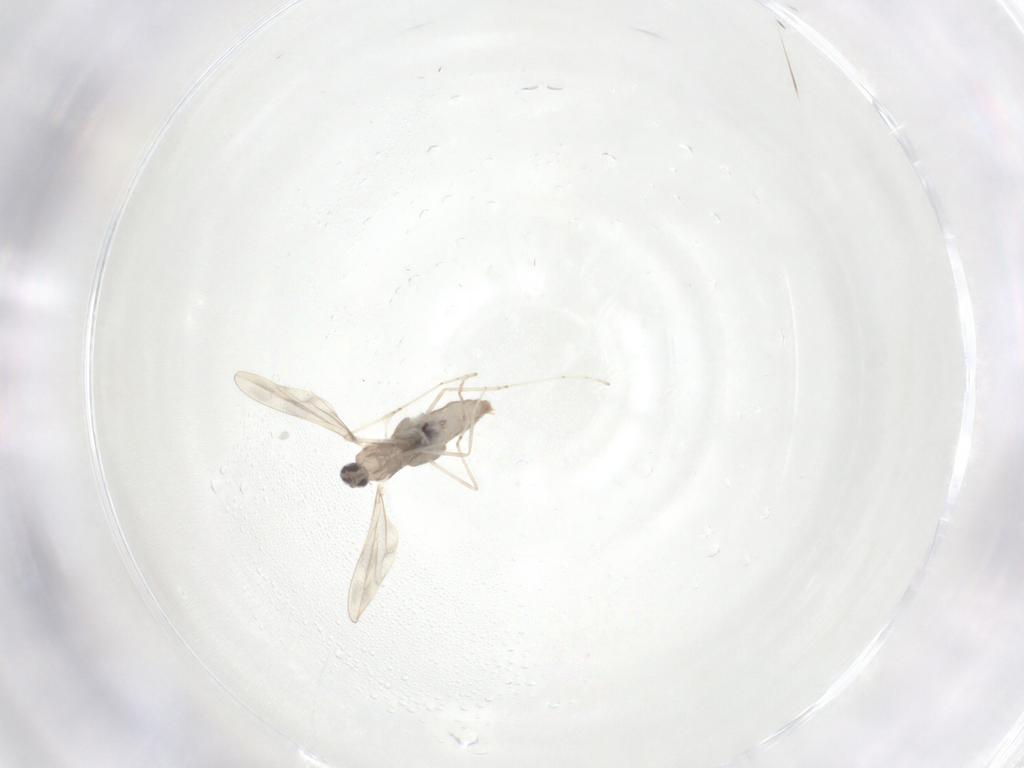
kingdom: Animalia
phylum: Arthropoda
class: Insecta
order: Diptera
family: Cecidomyiidae
